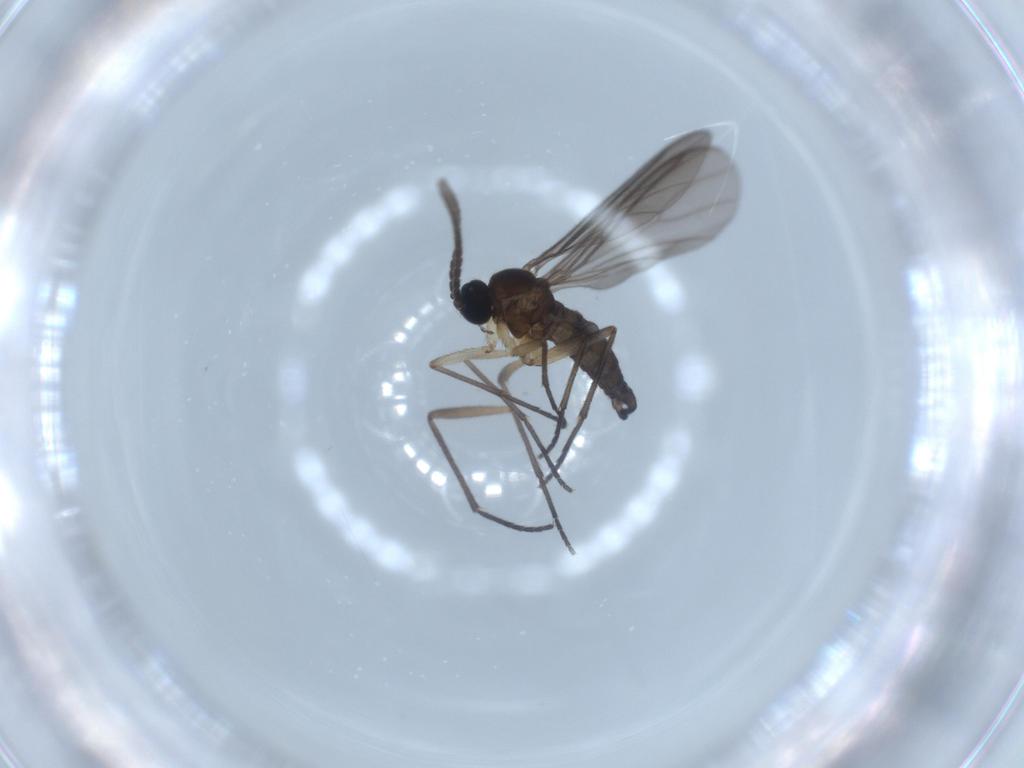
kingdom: Animalia
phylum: Arthropoda
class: Insecta
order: Diptera
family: Sciaridae
